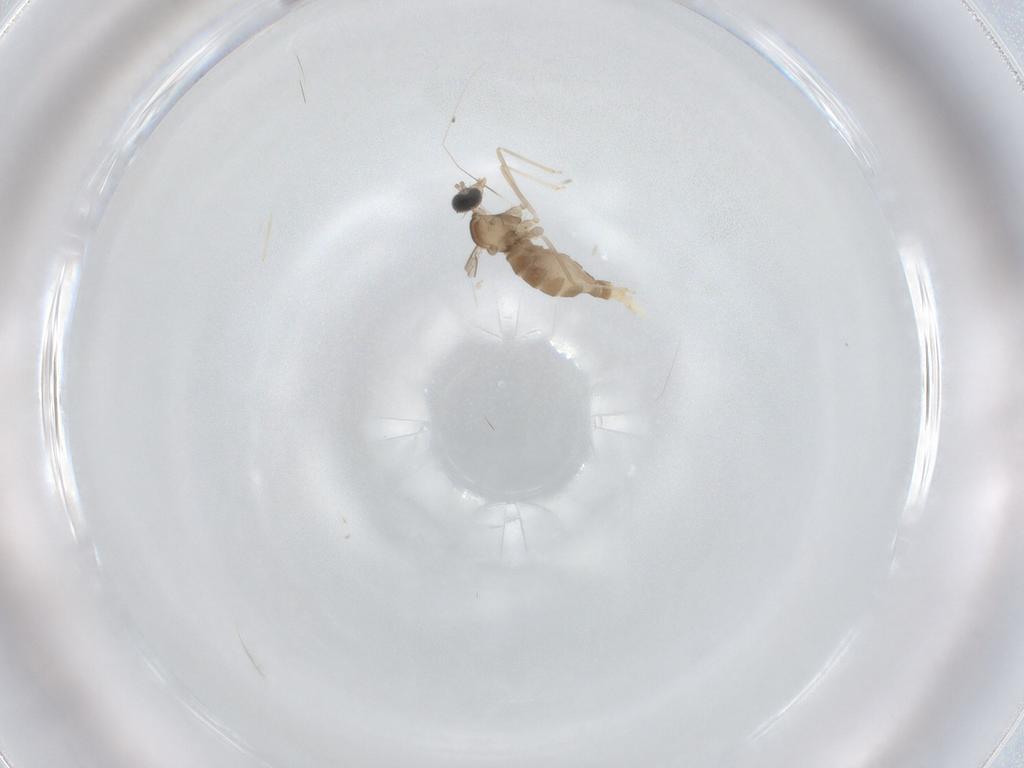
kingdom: Animalia
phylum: Arthropoda
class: Insecta
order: Diptera
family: Cecidomyiidae
